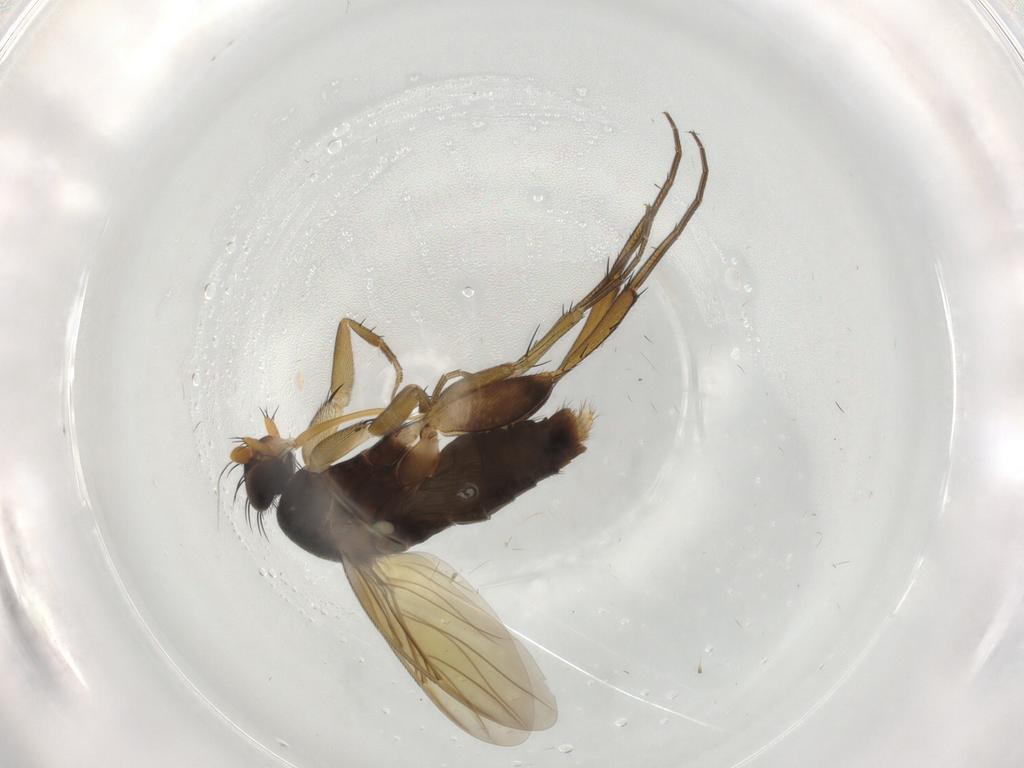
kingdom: Animalia
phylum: Arthropoda
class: Insecta
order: Diptera
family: Phoridae
